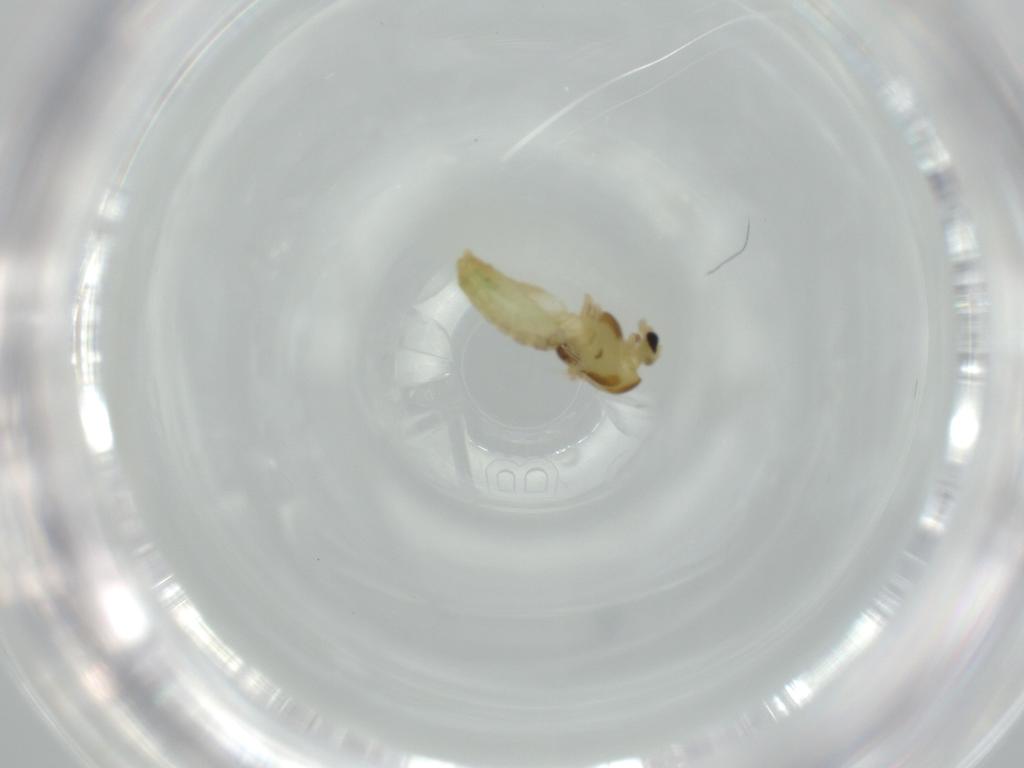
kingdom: Animalia
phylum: Arthropoda
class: Insecta
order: Diptera
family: Chironomidae
